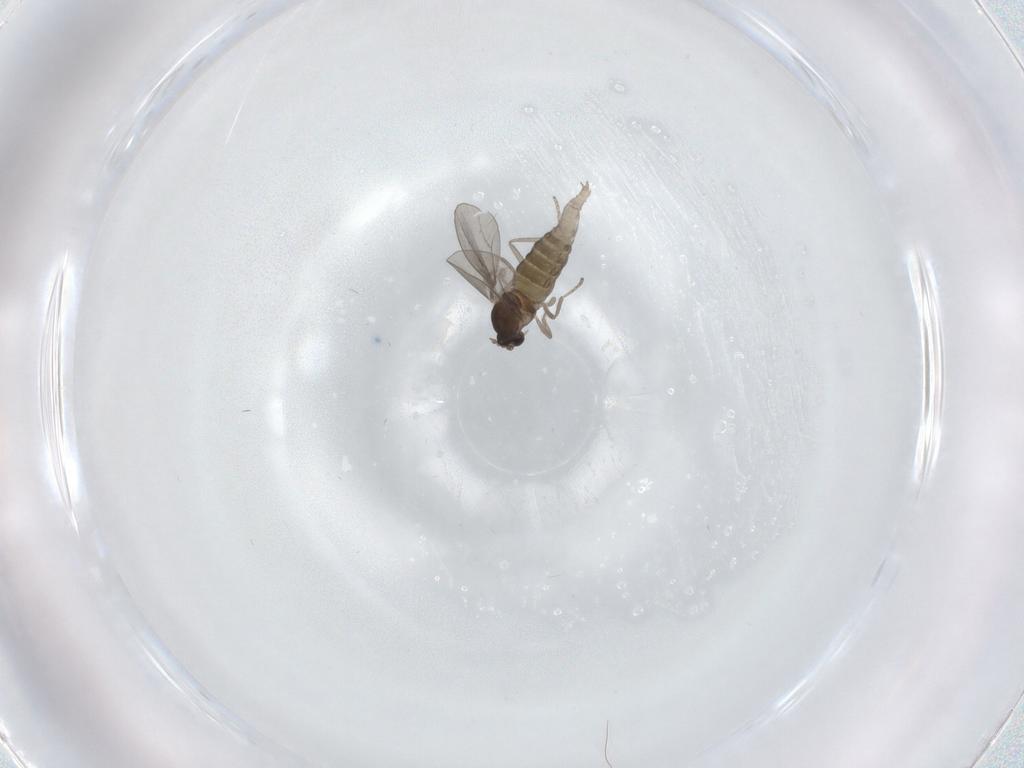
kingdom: Animalia
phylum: Arthropoda
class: Insecta
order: Diptera
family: Cecidomyiidae
